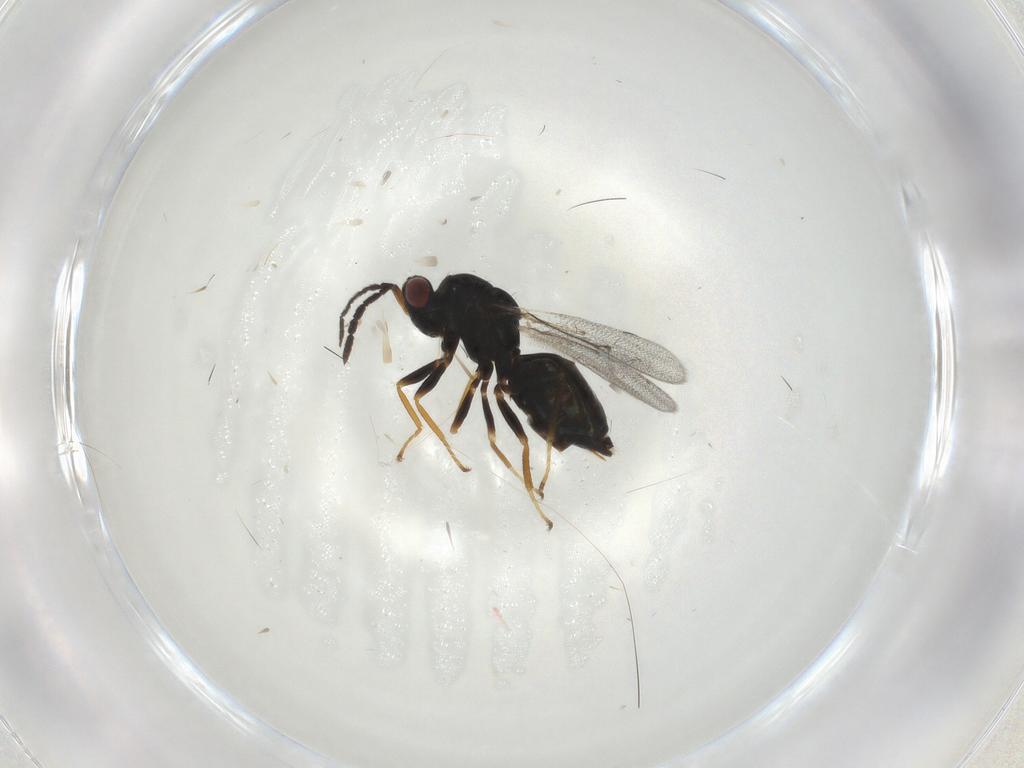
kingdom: Animalia
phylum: Arthropoda
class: Insecta
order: Hymenoptera
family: Eulophidae
